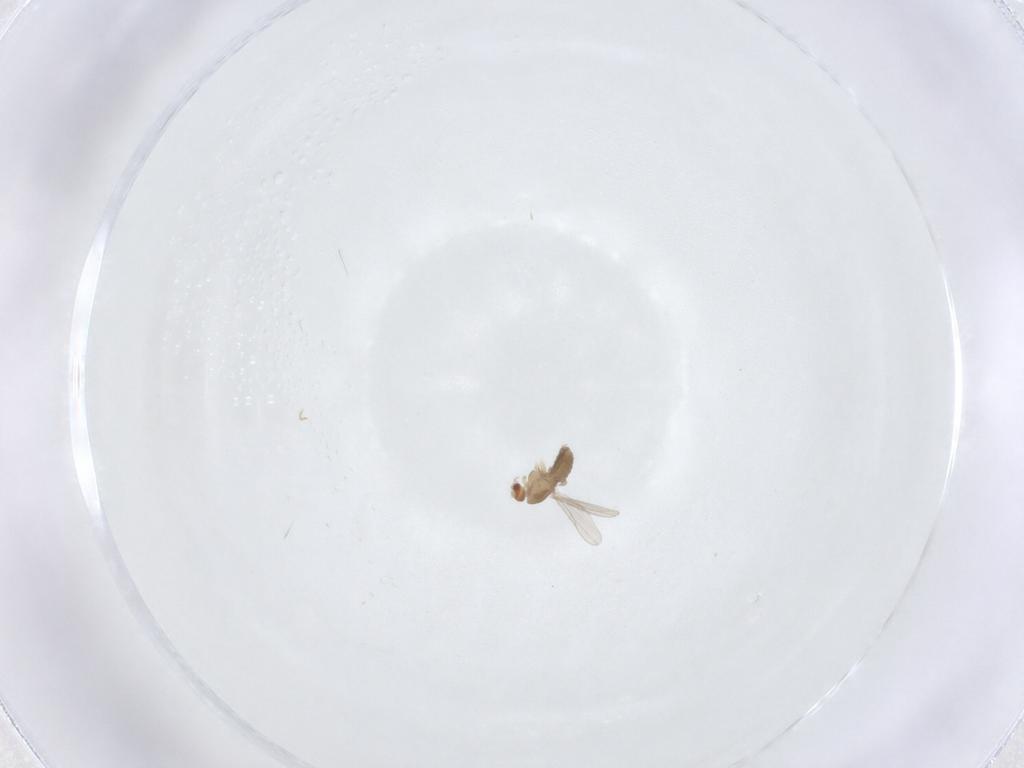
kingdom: Animalia
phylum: Arthropoda
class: Insecta
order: Diptera
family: Chironomidae
